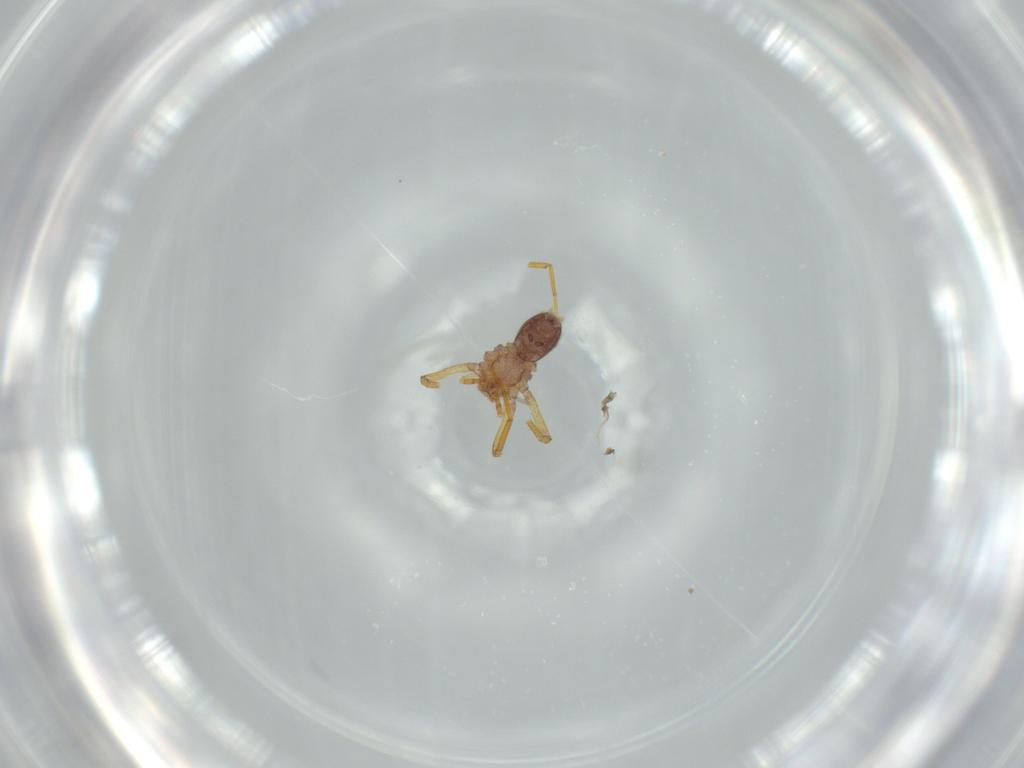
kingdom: Animalia
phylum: Arthropoda
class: Arachnida
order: Araneae
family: Ochyroceratidae
